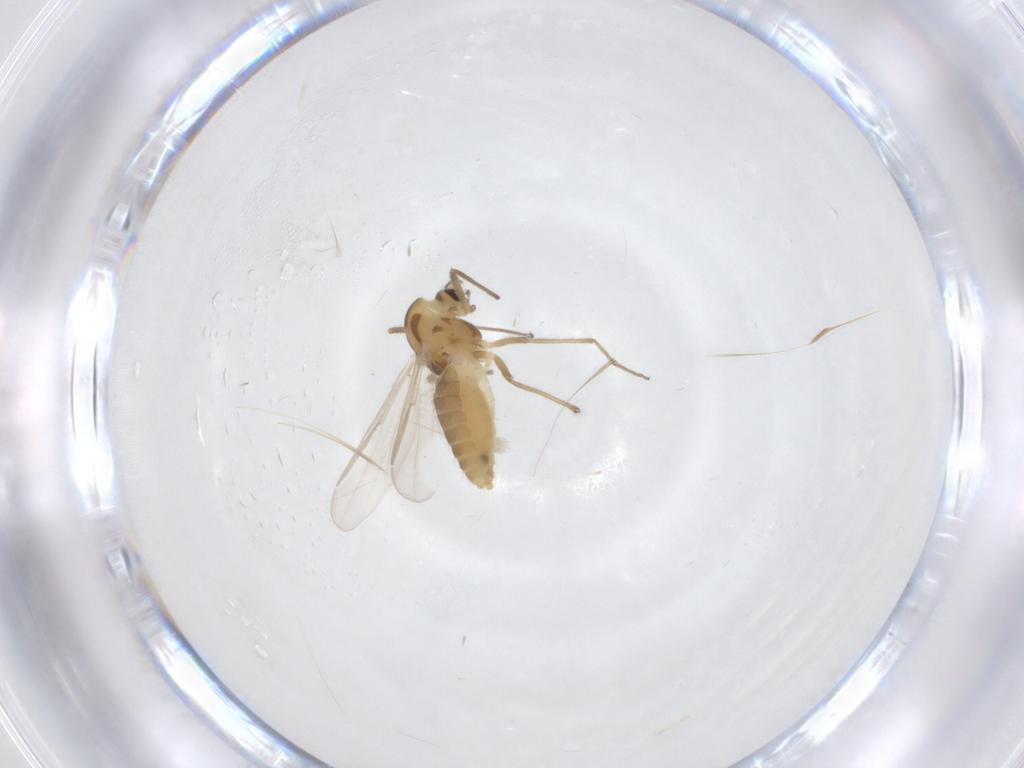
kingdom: Animalia
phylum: Arthropoda
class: Insecta
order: Diptera
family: Chironomidae
